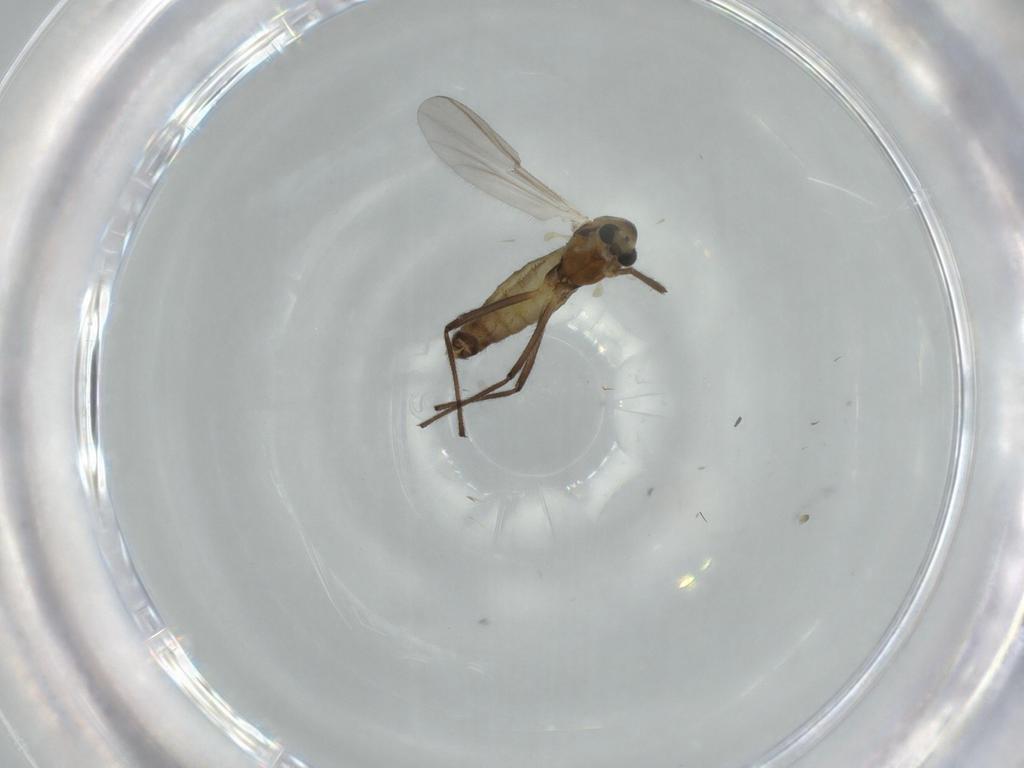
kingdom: Animalia
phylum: Arthropoda
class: Insecta
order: Diptera
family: Chironomidae
